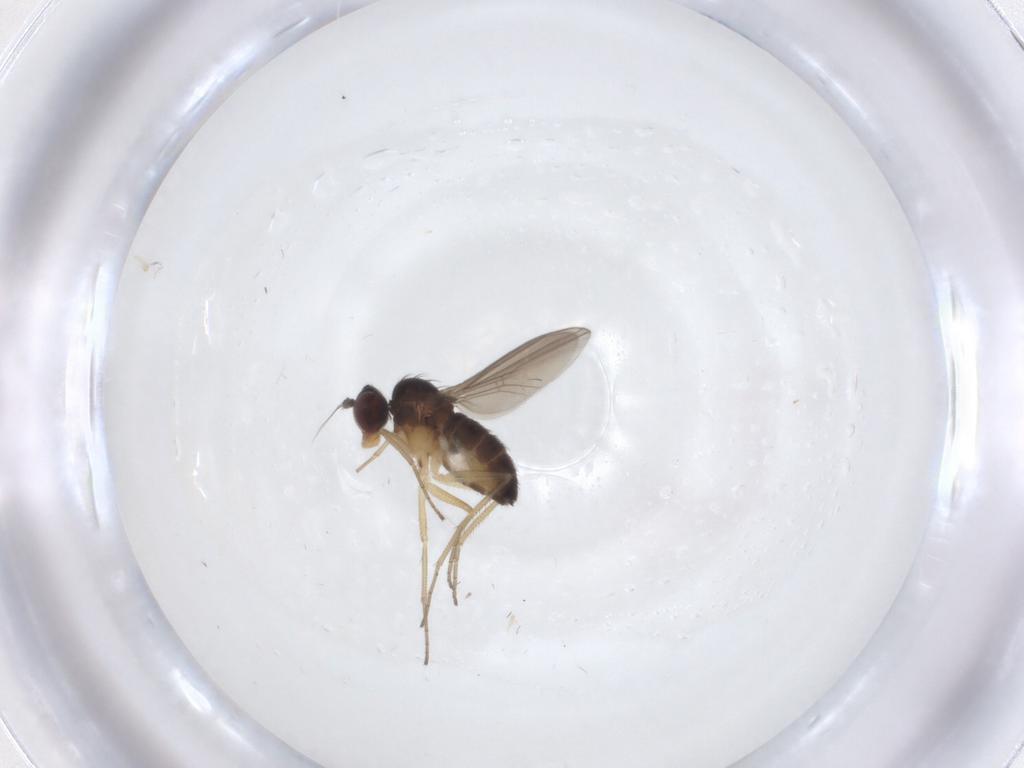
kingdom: Animalia
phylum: Arthropoda
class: Insecta
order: Diptera
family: Dolichopodidae
